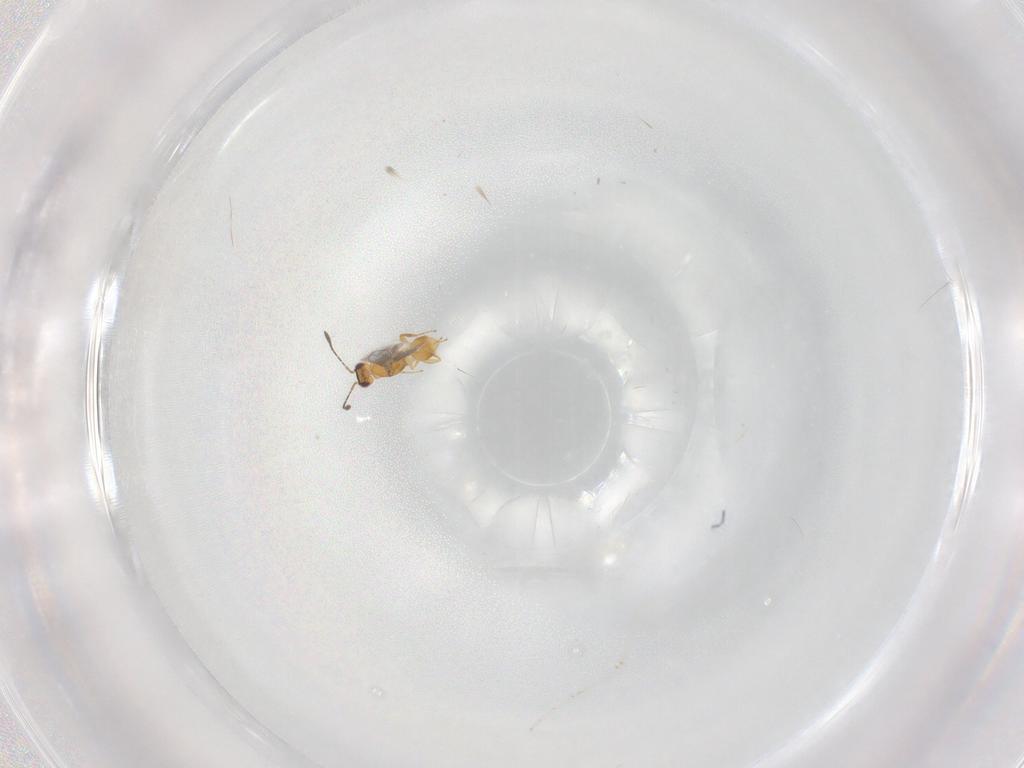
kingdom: Animalia
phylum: Arthropoda
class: Insecta
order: Hymenoptera
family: Mymaridae
